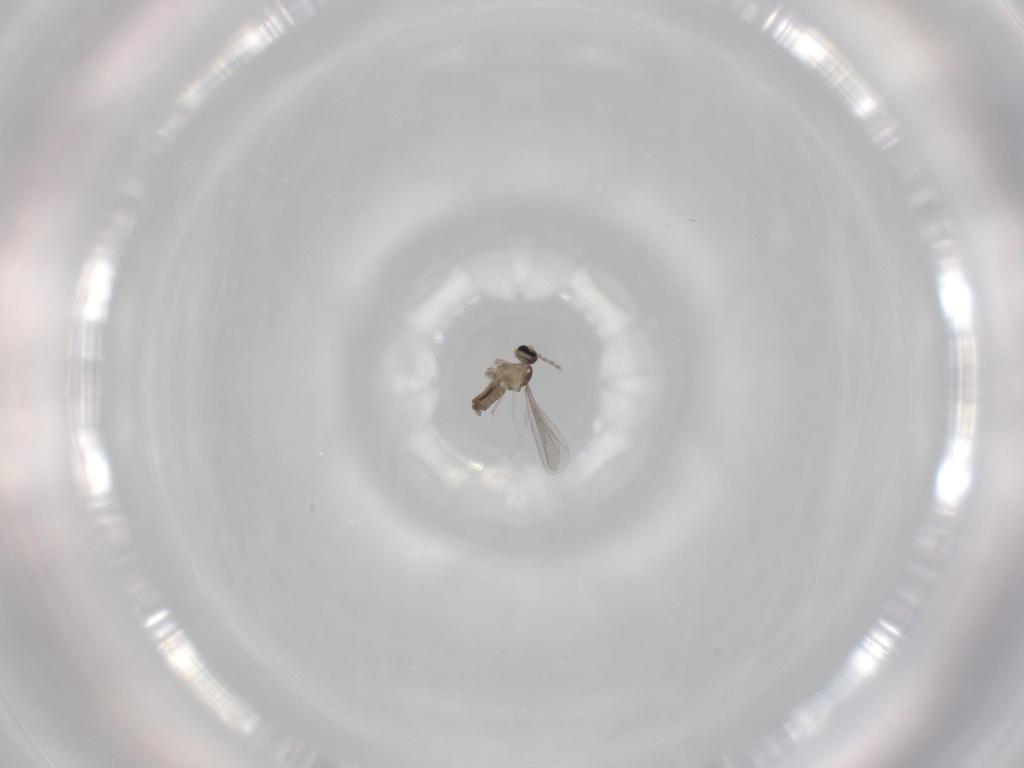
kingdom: Animalia
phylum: Arthropoda
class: Insecta
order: Diptera
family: Cecidomyiidae
